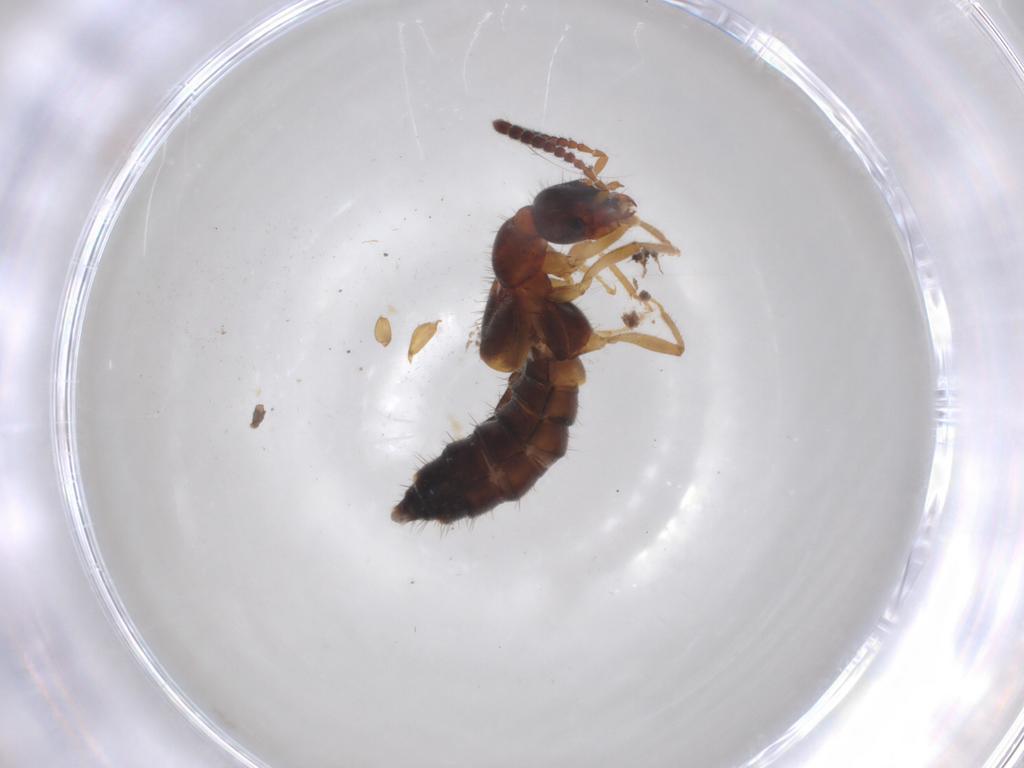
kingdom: Animalia
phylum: Arthropoda
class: Insecta
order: Coleoptera
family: Staphylinidae
